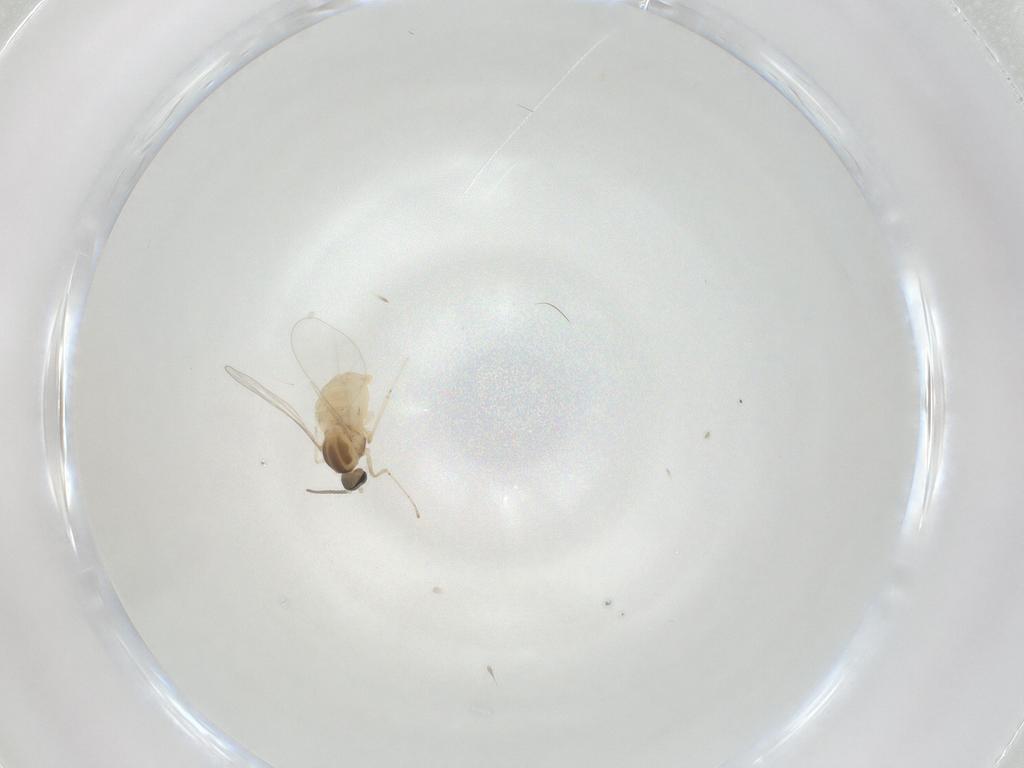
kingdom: Animalia
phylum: Arthropoda
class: Insecta
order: Diptera
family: Cecidomyiidae
